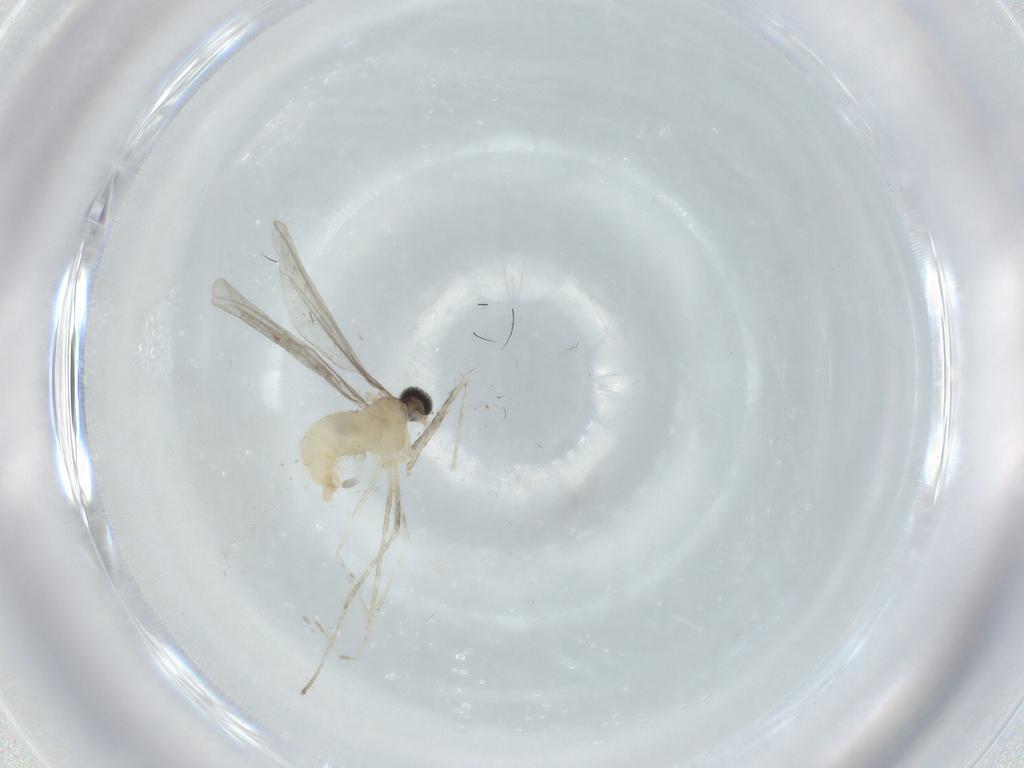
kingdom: Animalia
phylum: Arthropoda
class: Insecta
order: Diptera
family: Cecidomyiidae
